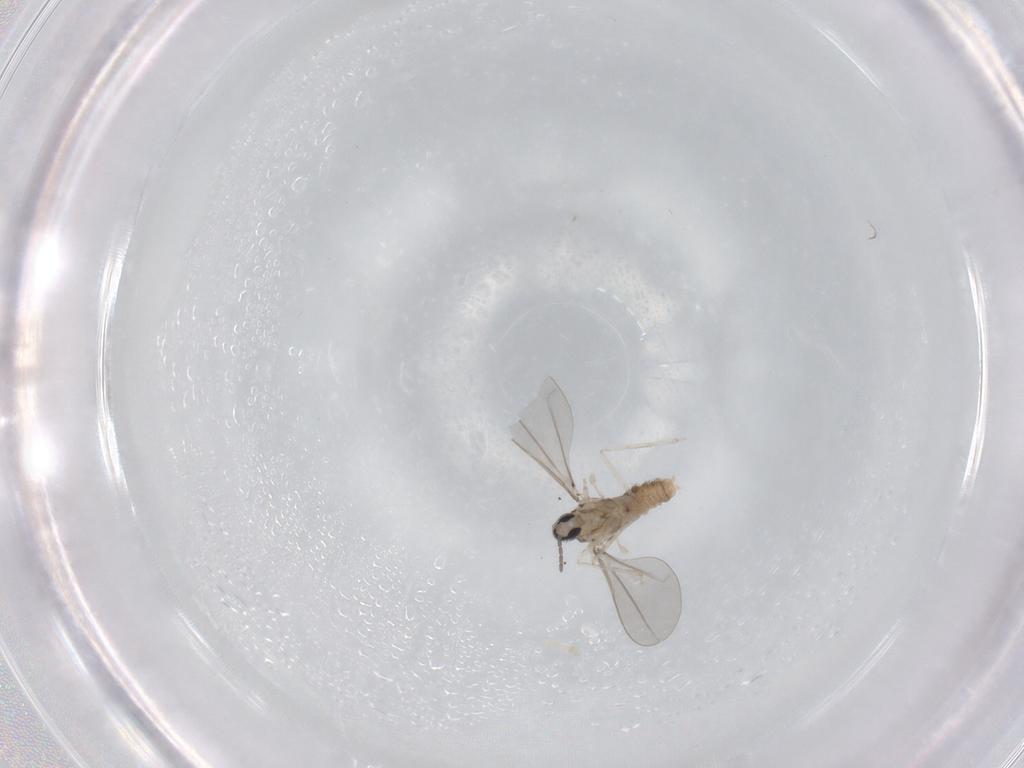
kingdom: Animalia
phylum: Arthropoda
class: Insecta
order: Diptera
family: Cecidomyiidae
